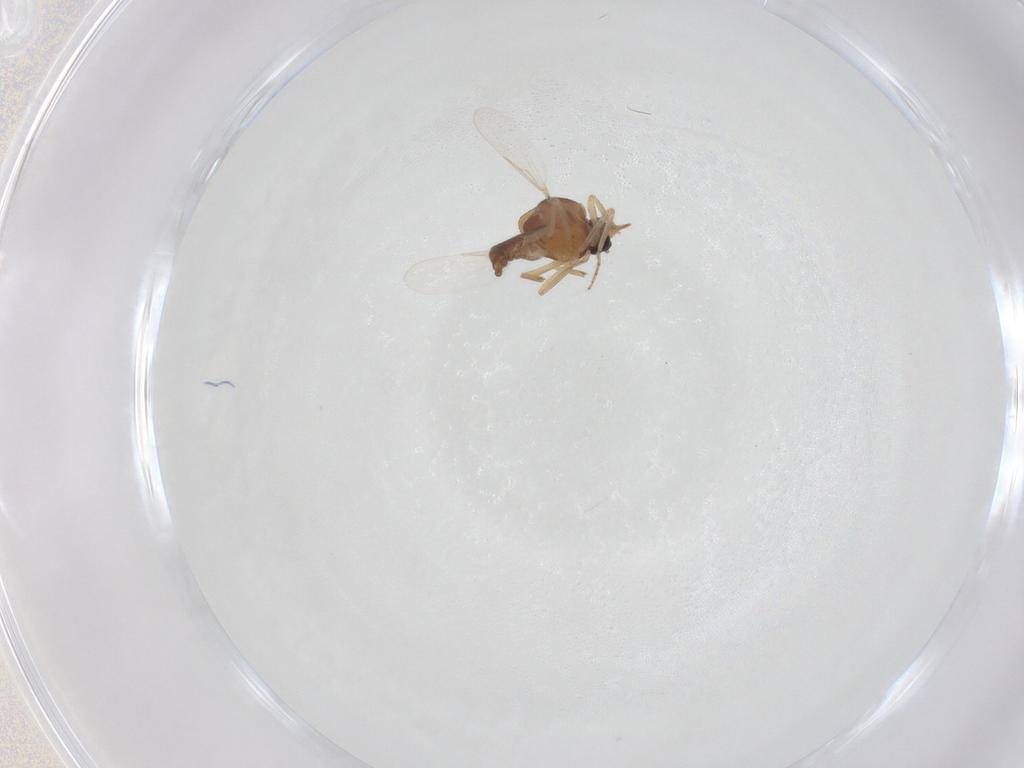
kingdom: Animalia
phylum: Arthropoda
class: Insecta
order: Diptera
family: Ceratopogonidae
